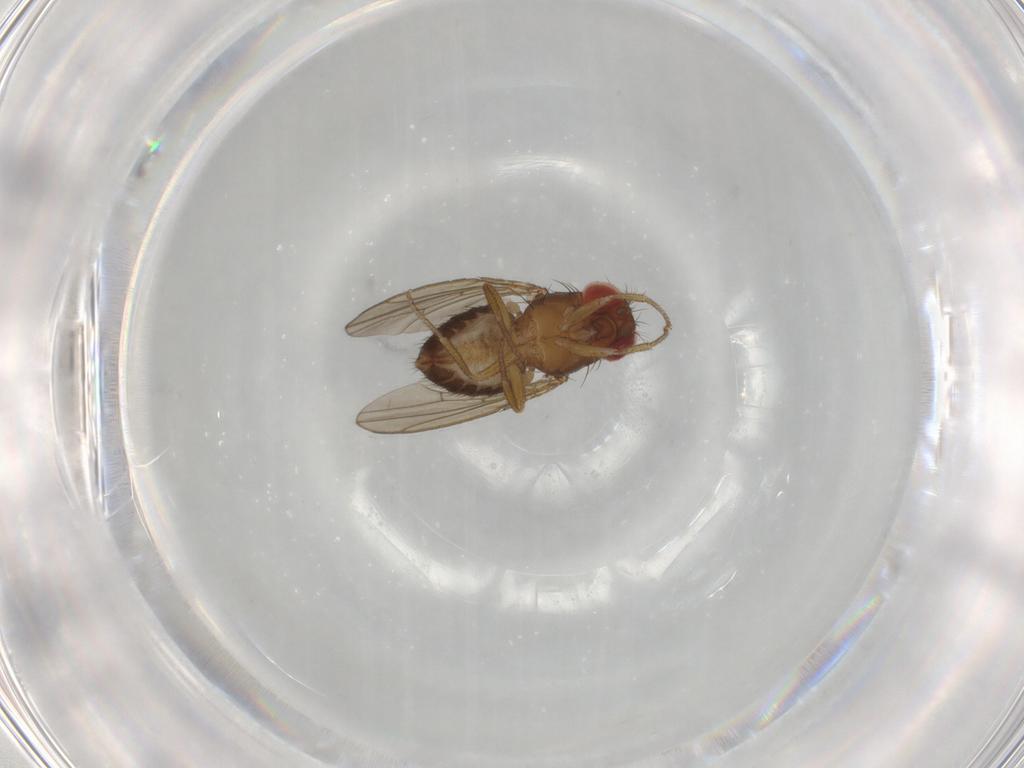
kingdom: Animalia
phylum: Arthropoda
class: Insecta
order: Diptera
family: Drosophilidae
